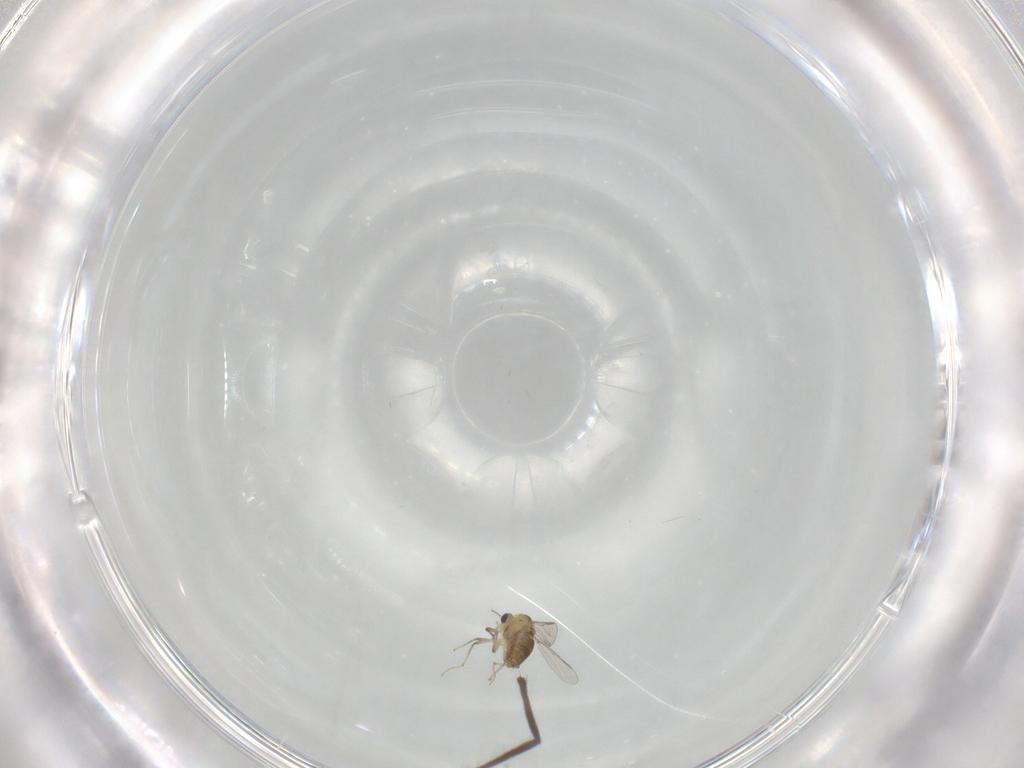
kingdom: Animalia
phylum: Arthropoda
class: Insecta
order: Diptera
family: Chironomidae
